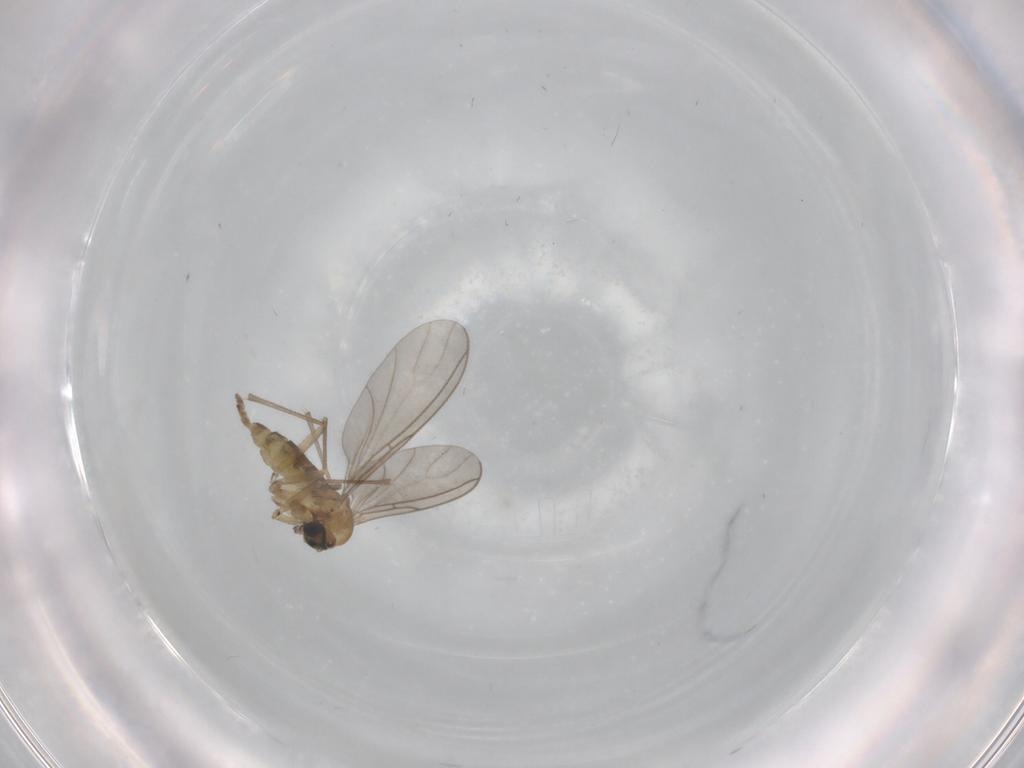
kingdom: Animalia
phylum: Arthropoda
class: Insecta
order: Diptera
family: Sciaridae
